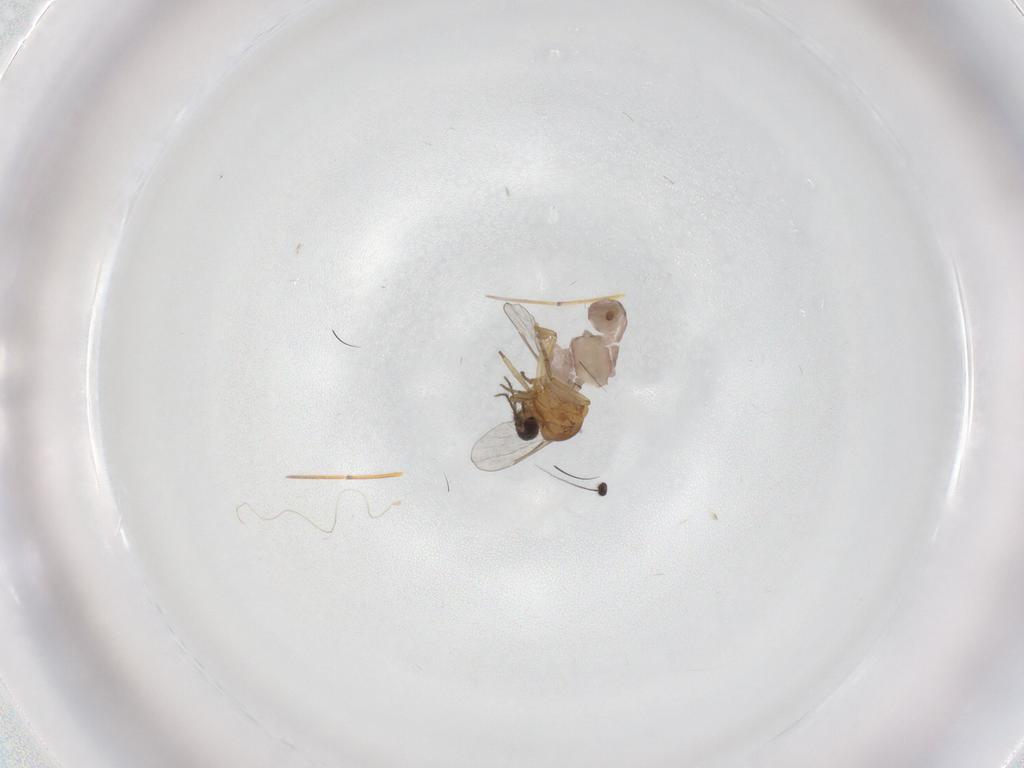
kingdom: Animalia
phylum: Arthropoda
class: Insecta
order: Diptera
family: Dolichopodidae
